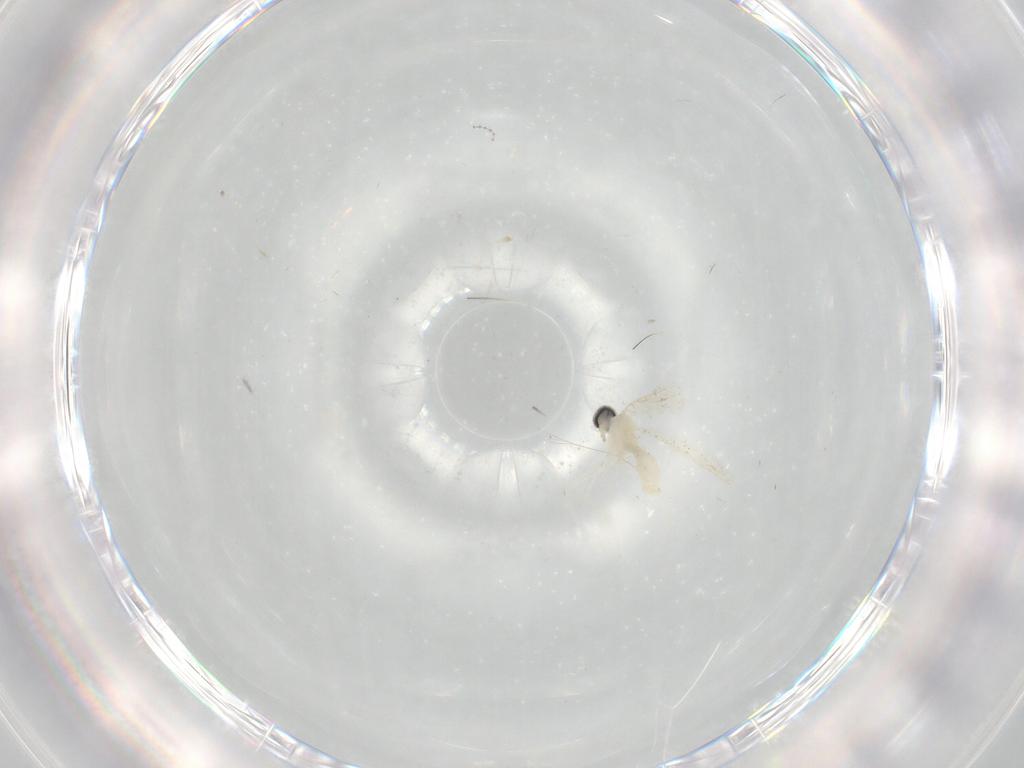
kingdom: Animalia
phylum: Arthropoda
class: Insecta
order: Diptera
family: Cecidomyiidae
